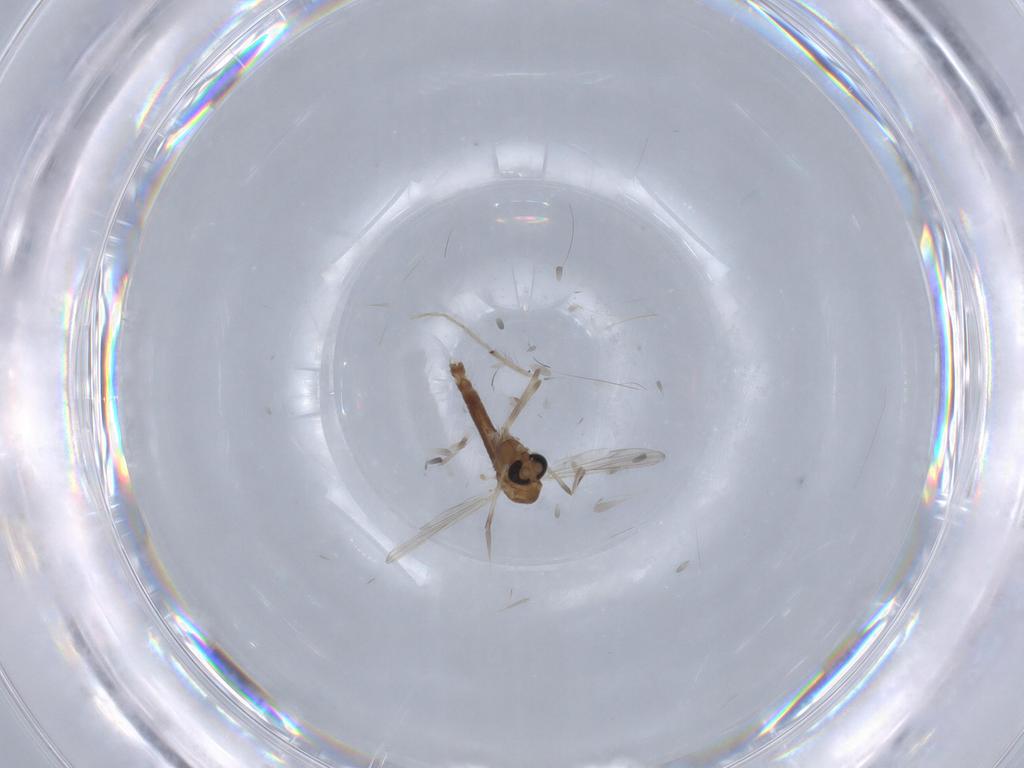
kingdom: Animalia
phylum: Arthropoda
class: Insecta
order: Diptera
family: Chironomidae
